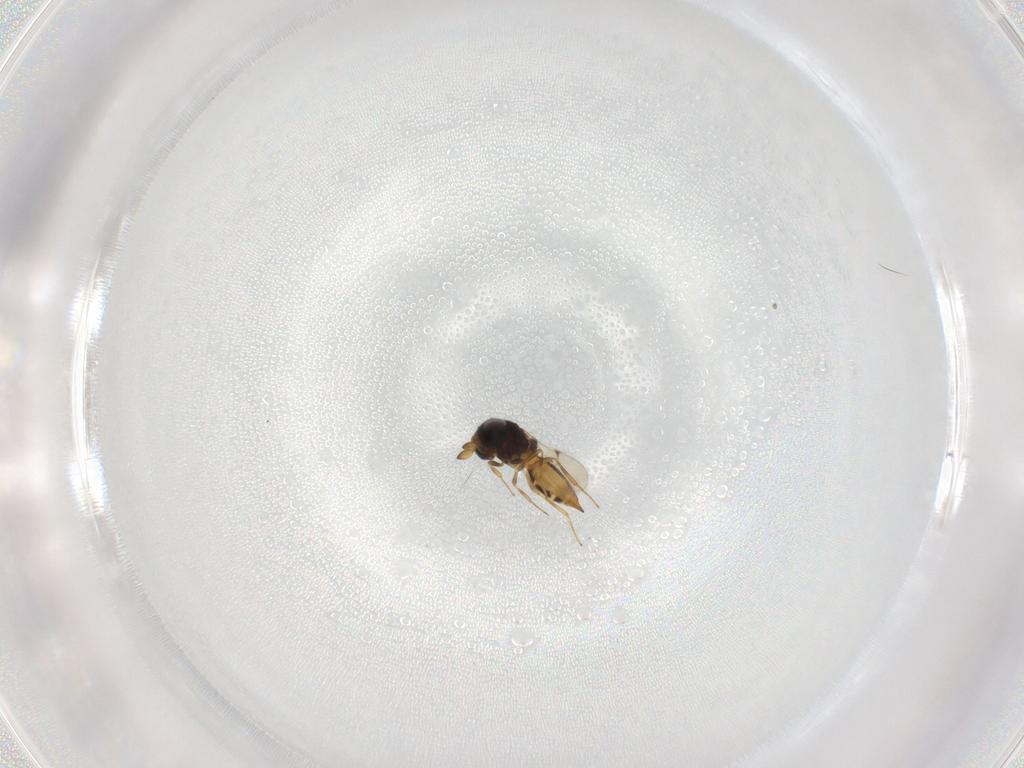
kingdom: Animalia
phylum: Arthropoda
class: Insecta
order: Hymenoptera
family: Scelionidae
